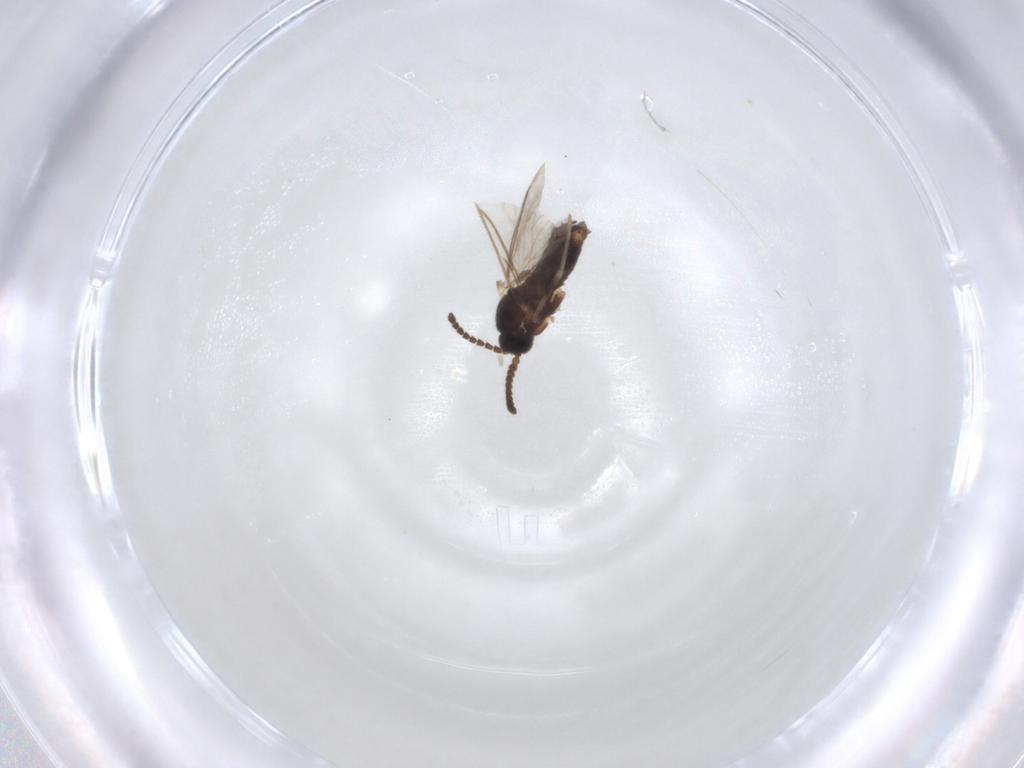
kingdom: Animalia
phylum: Arthropoda
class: Insecta
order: Diptera
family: Scatopsidae
